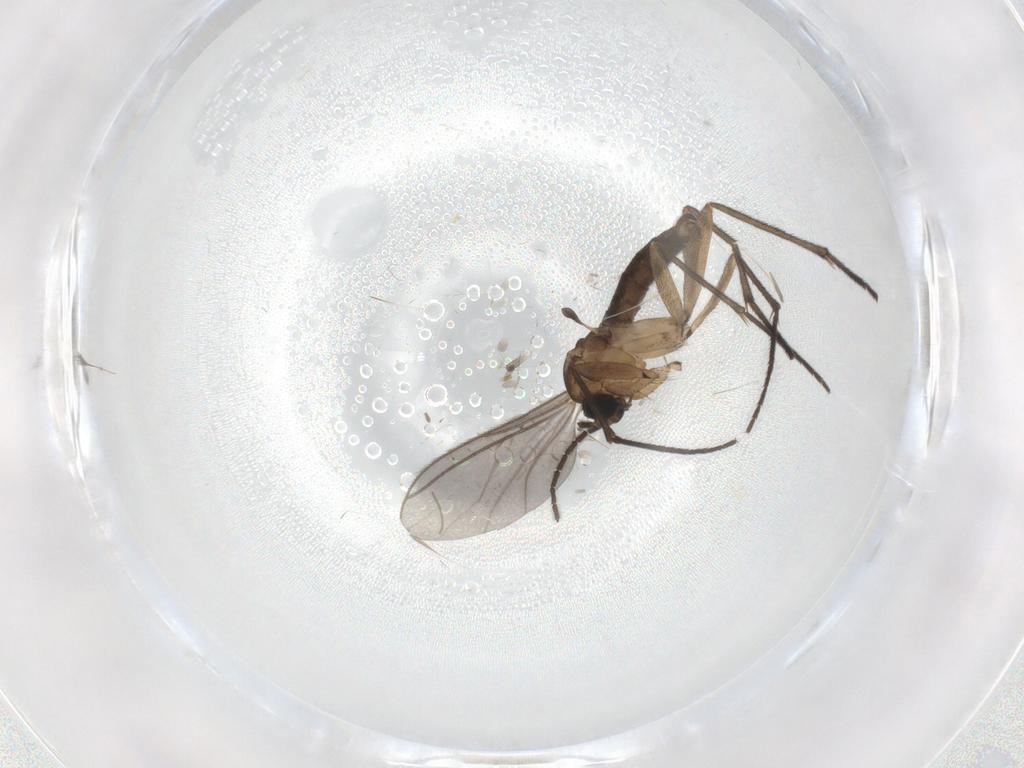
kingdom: Animalia
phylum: Arthropoda
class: Insecta
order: Diptera
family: Sciaridae
